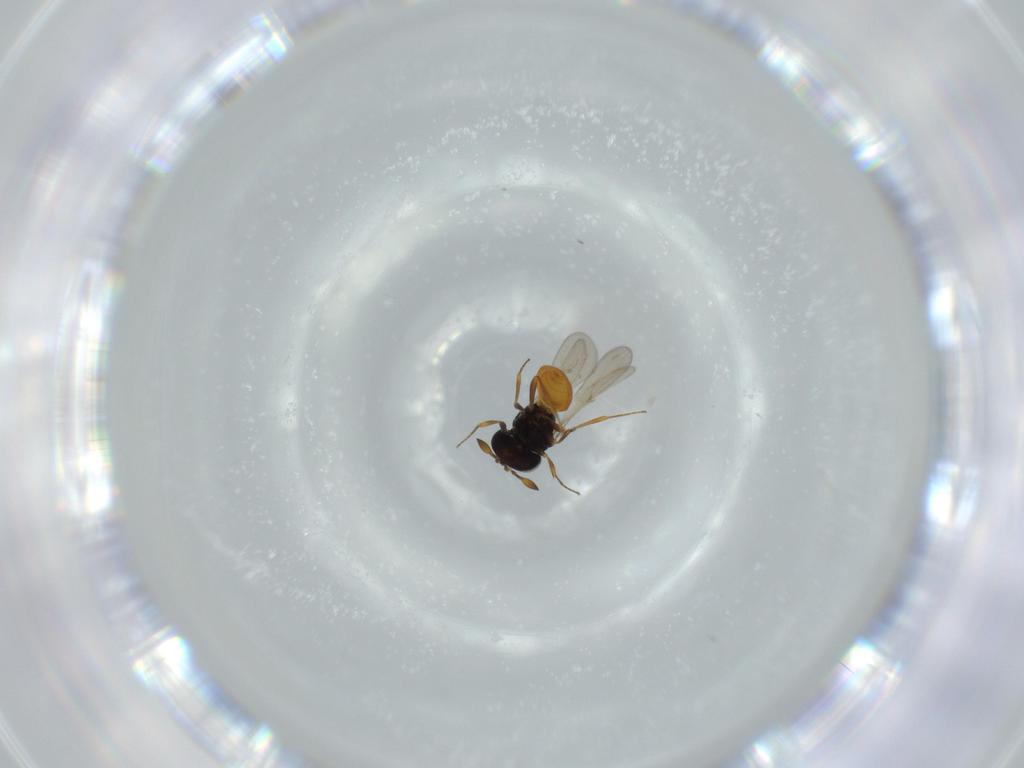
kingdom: Animalia
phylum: Arthropoda
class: Insecta
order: Hymenoptera
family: Scelionidae
